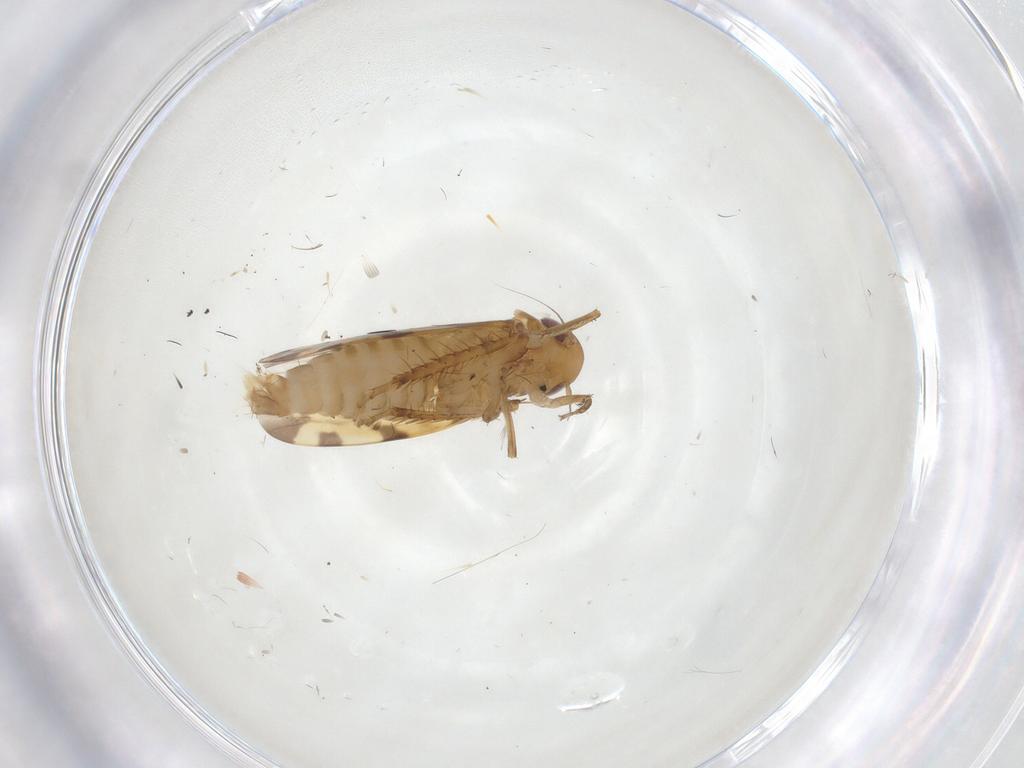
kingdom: Animalia
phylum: Arthropoda
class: Insecta
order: Hemiptera
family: Cicadellidae
